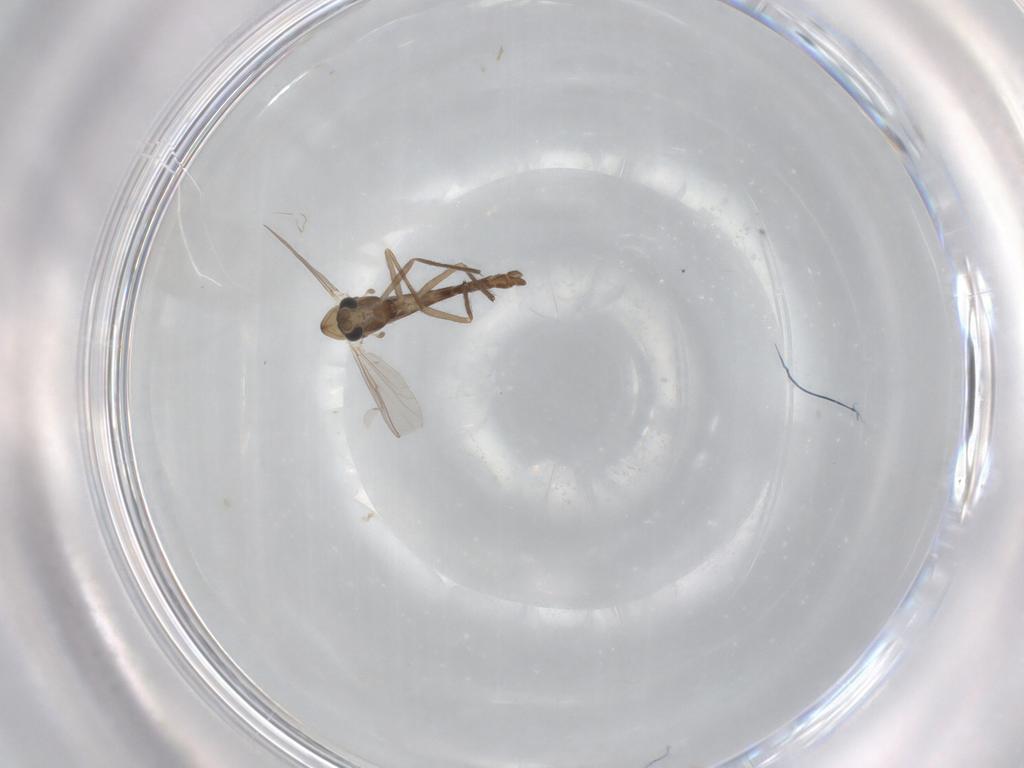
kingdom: Animalia
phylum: Arthropoda
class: Insecta
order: Diptera
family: Chironomidae
